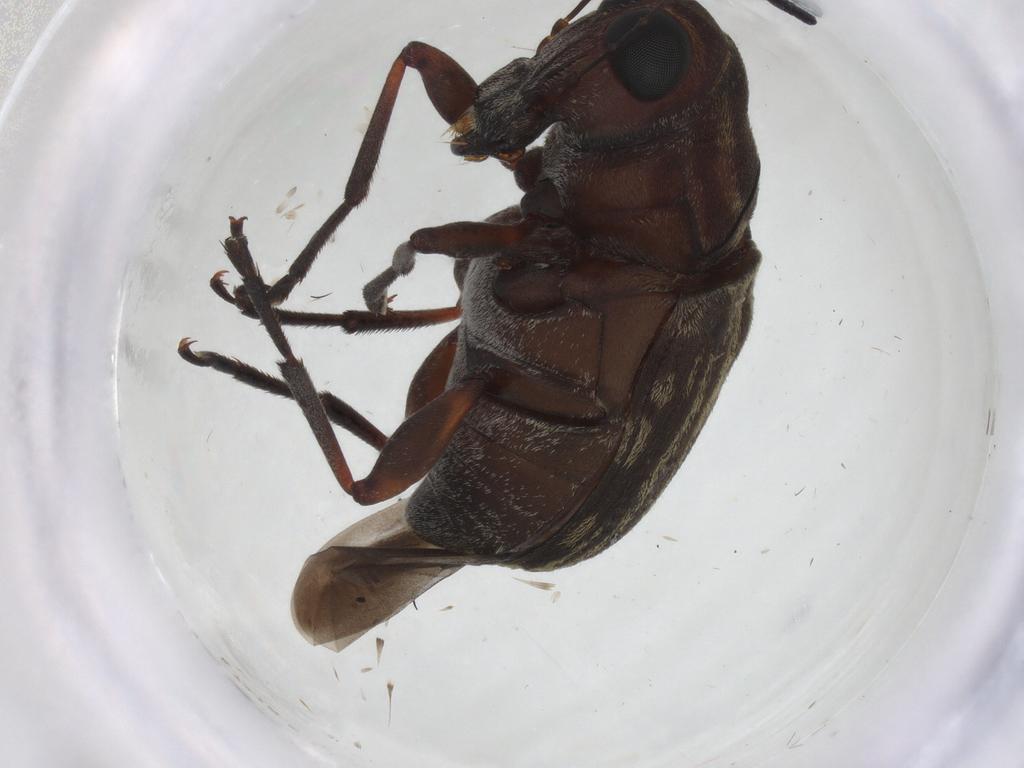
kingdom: Animalia
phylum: Arthropoda
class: Insecta
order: Coleoptera
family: Anthribidae
